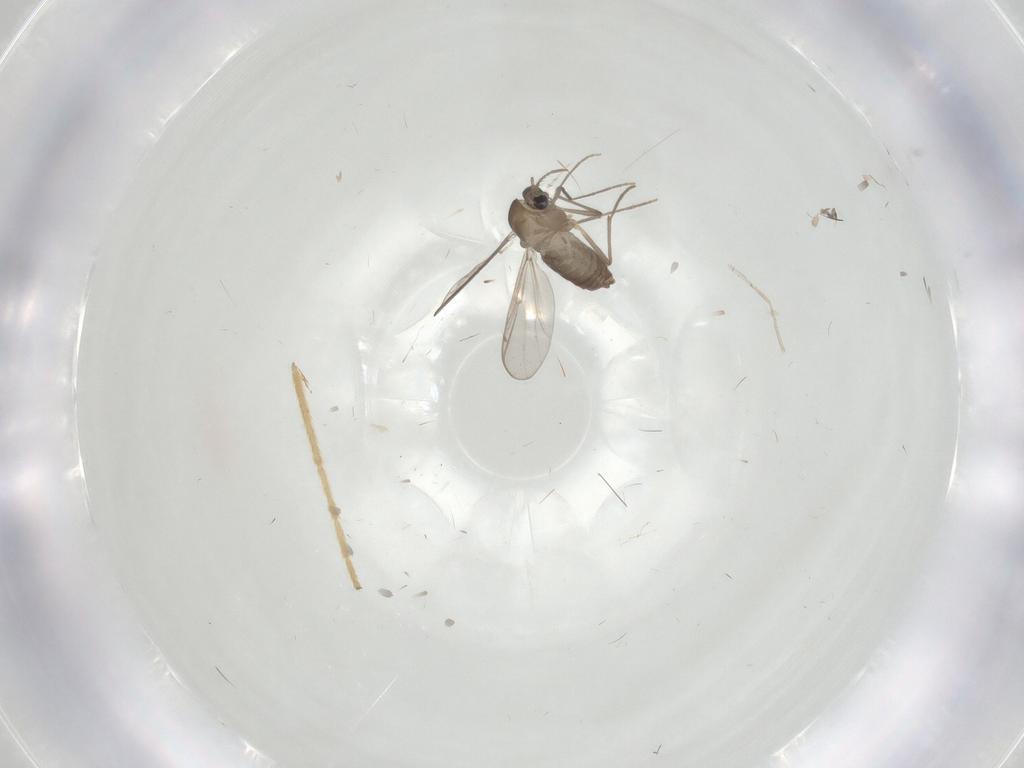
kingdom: Animalia
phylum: Arthropoda
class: Insecta
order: Diptera
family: Chironomidae
